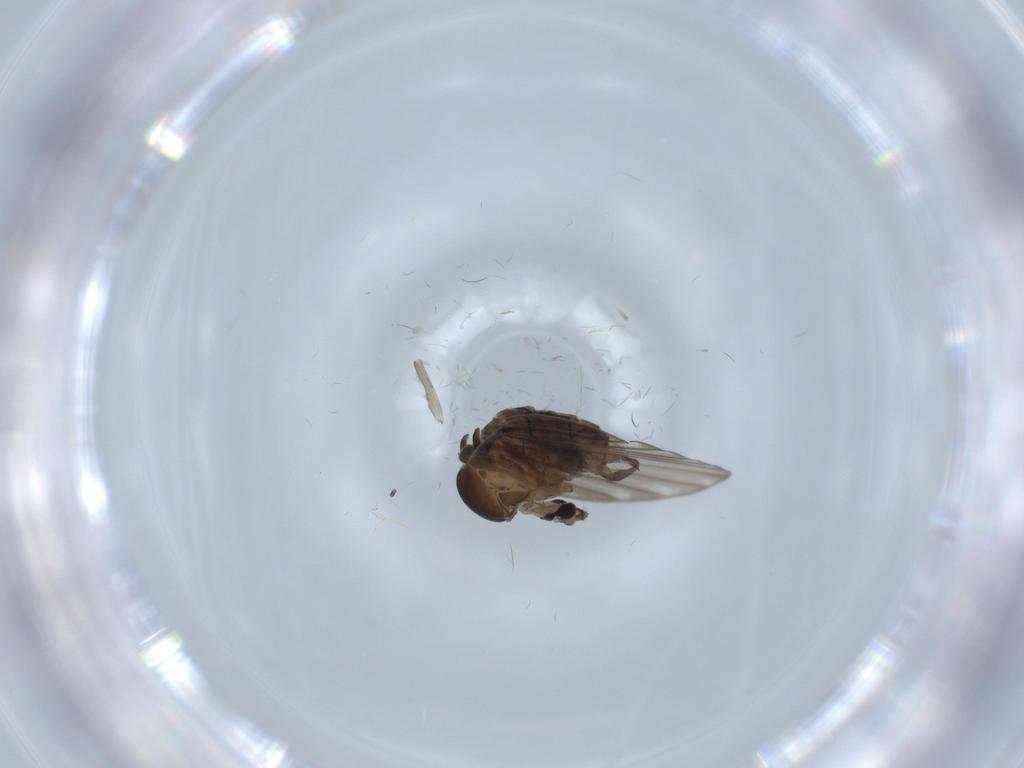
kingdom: Animalia
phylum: Arthropoda
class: Insecta
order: Diptera
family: Psychodidae
